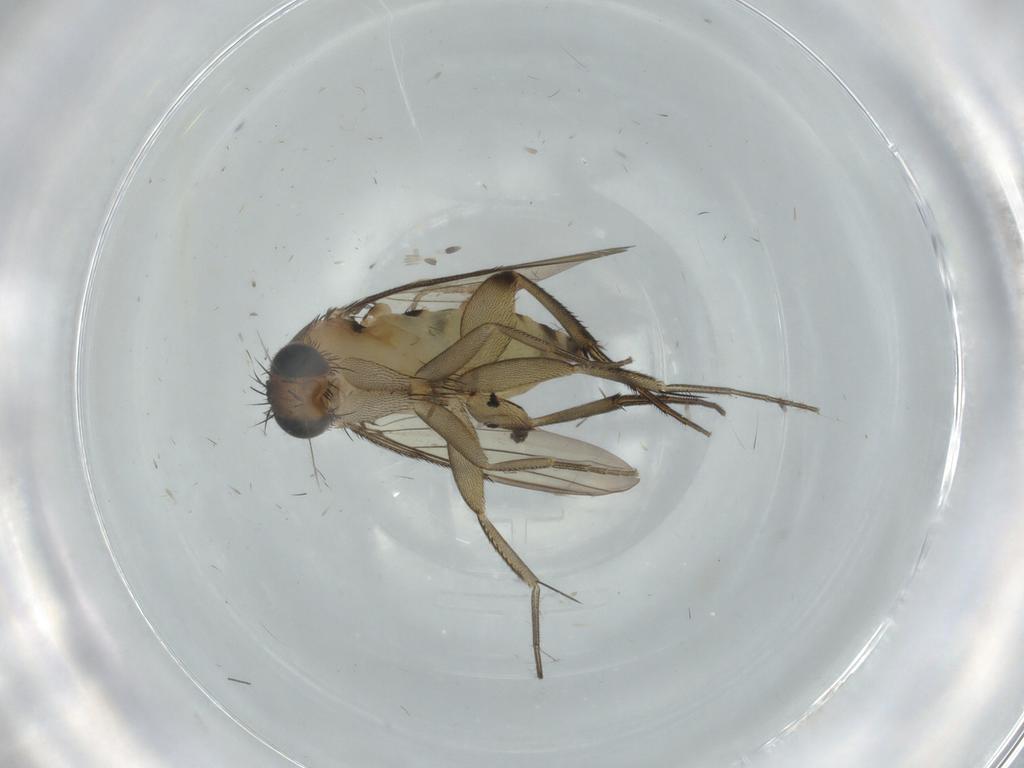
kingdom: Animalia
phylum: Arthropoda
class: Insecta
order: Diptera
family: Phoridae
